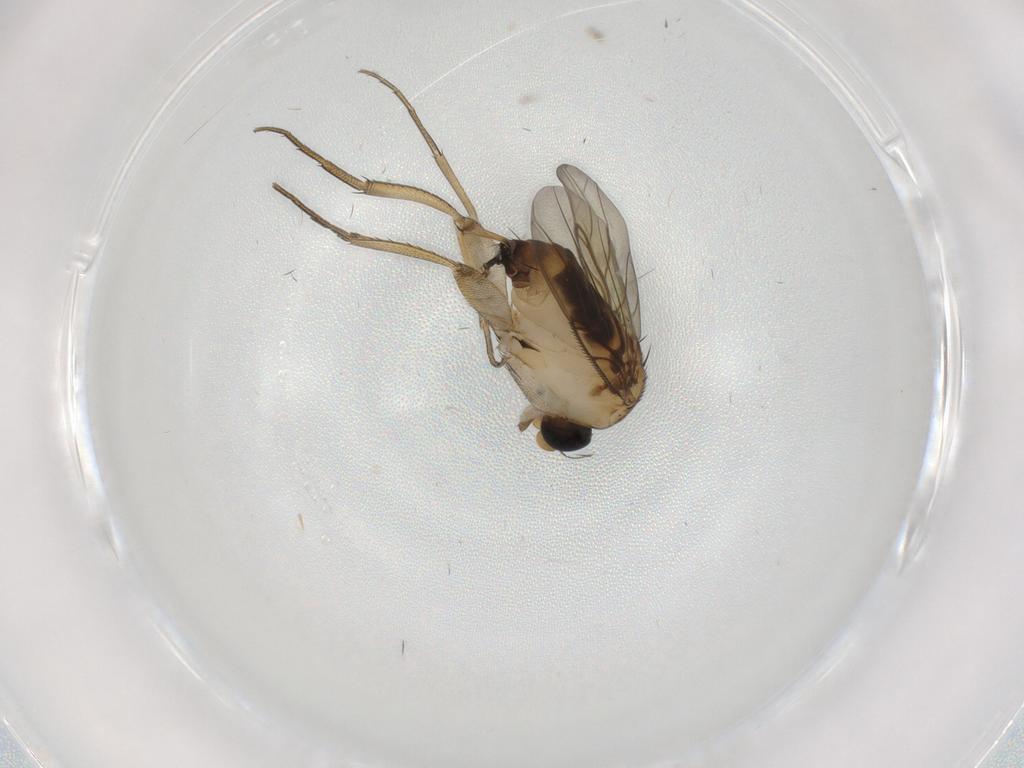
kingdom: Animalia
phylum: Arthropoda
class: Insecta
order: Diptera
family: Phoridae
